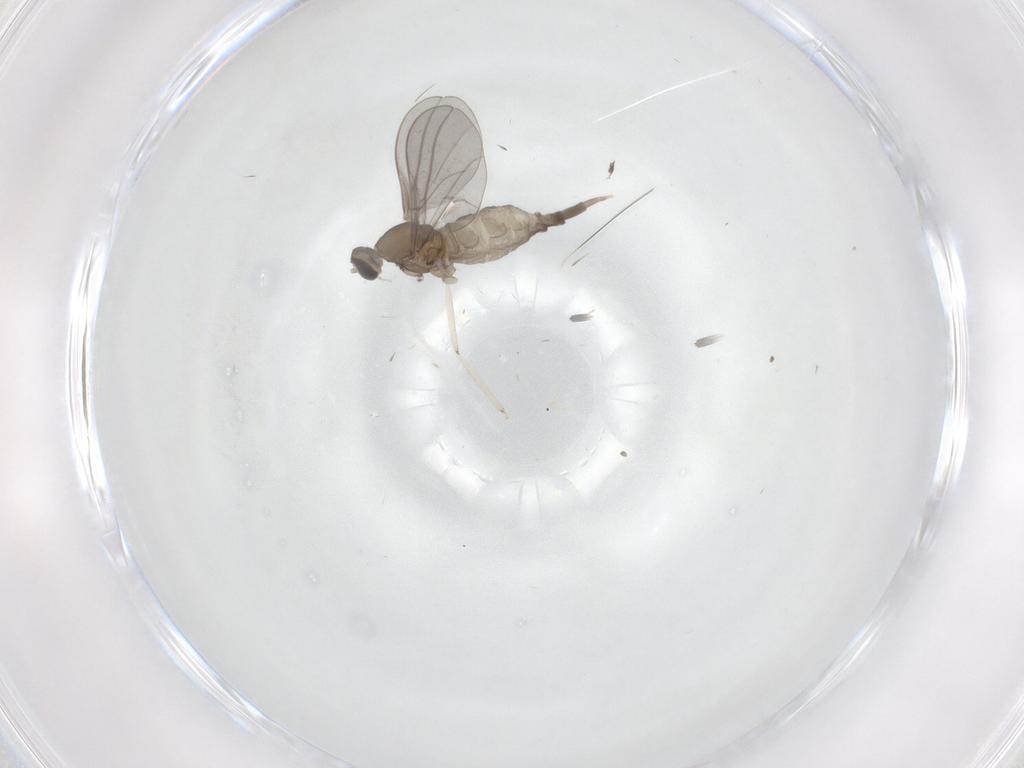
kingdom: Animalia
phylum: Arthropoda
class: Insecta
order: Diptera
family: Cecidomyiidae
